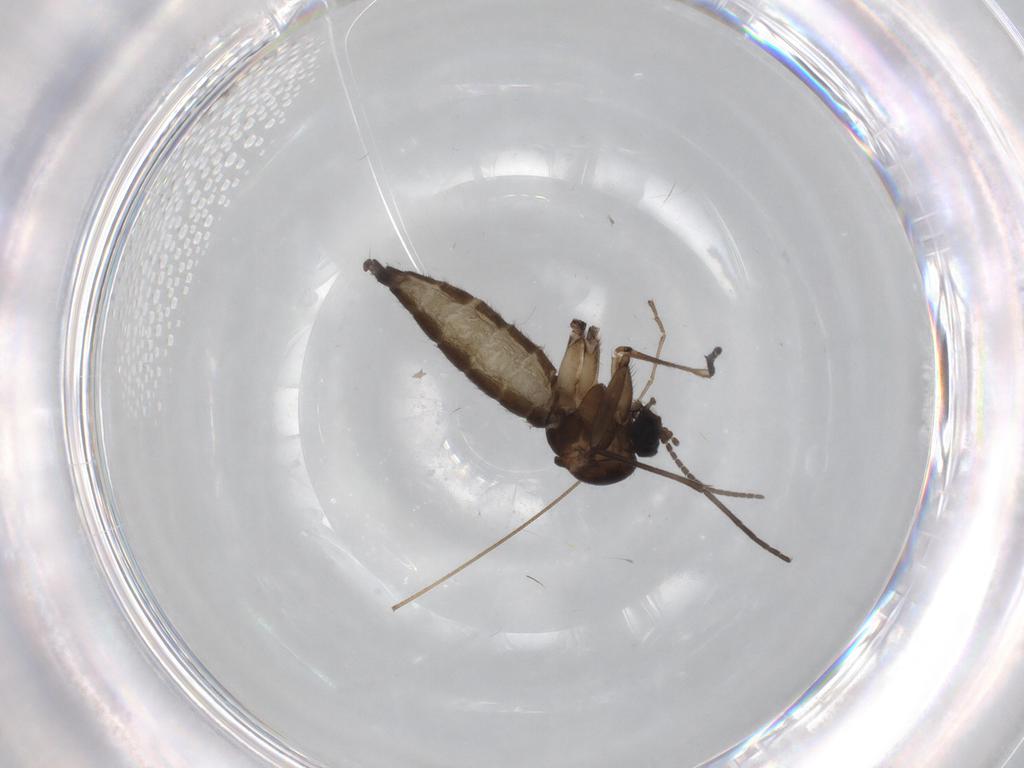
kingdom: Animalia
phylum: Arthropoda
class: Insecta
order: Diptera
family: Sciaridae
